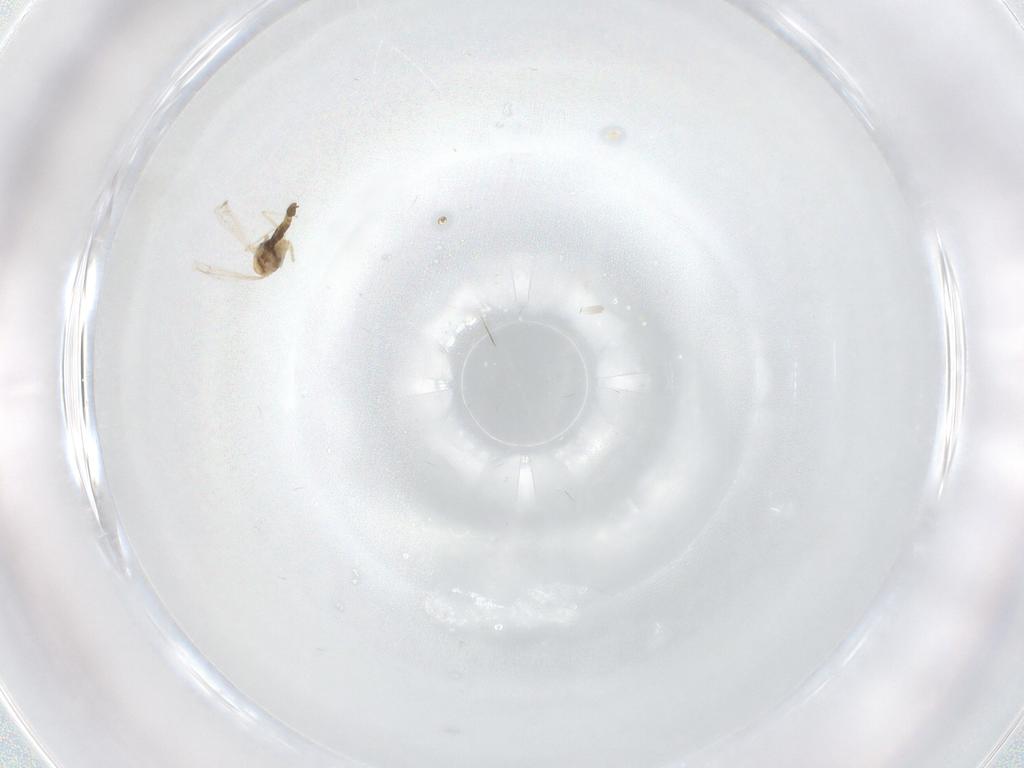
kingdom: Animalia
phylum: Arthropoda
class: Insecta
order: Diptera
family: Chironomidae
